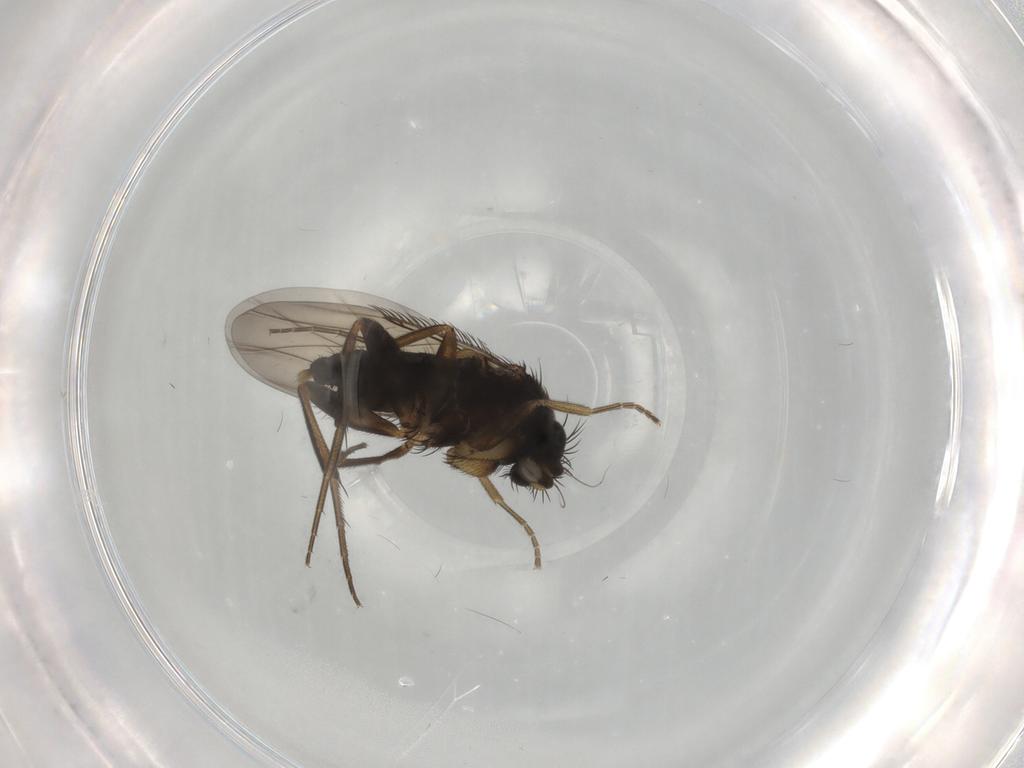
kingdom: Animalia
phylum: Arthropoda
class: Insecta
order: Diptera
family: Phoridae
